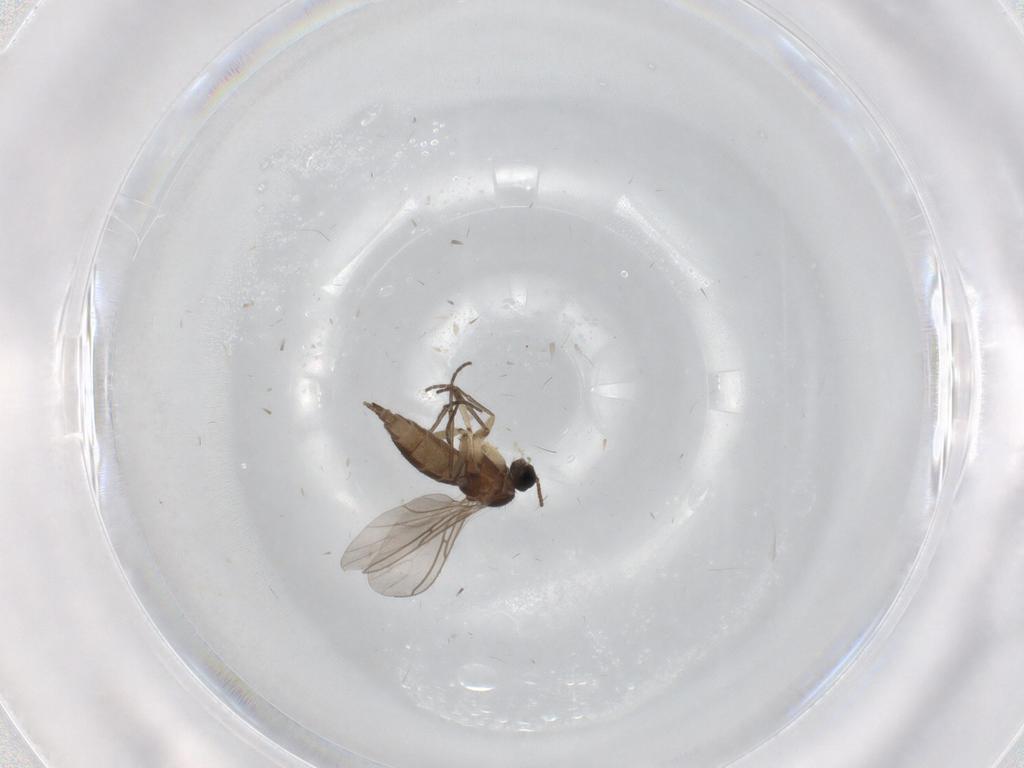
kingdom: Animalia
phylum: Arthropoda
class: Insecta
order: Diptera
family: Sciaridae
